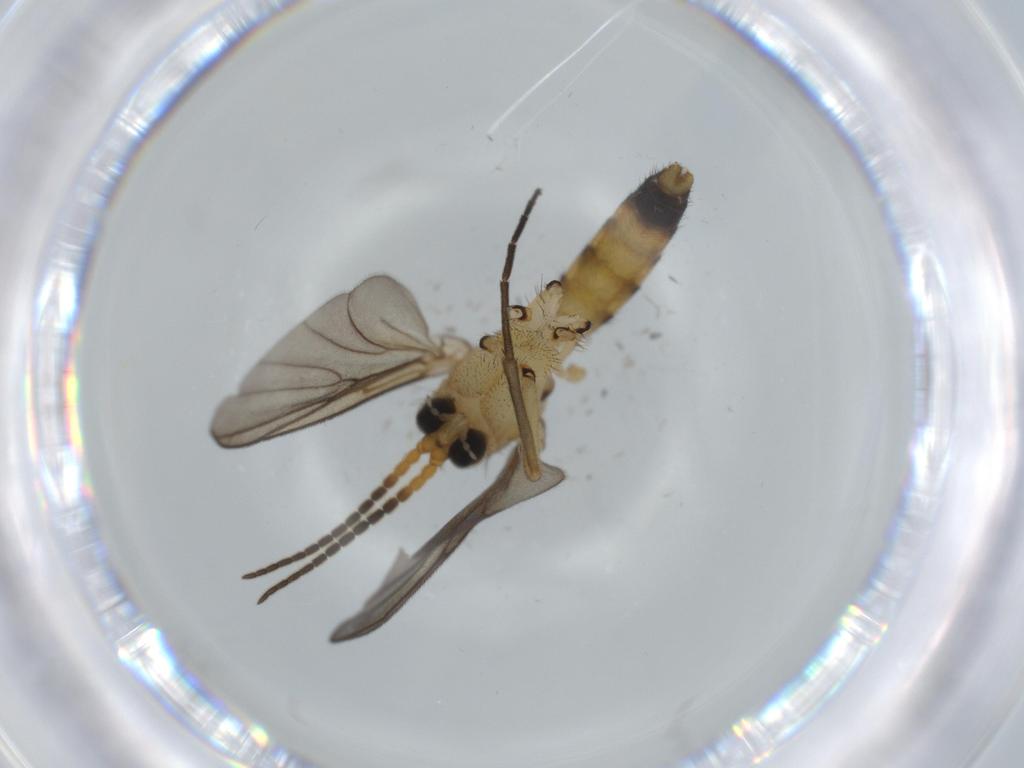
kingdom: Animalia
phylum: Arthropoda
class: Insecta
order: Diptera
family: Cecidomyiidae
